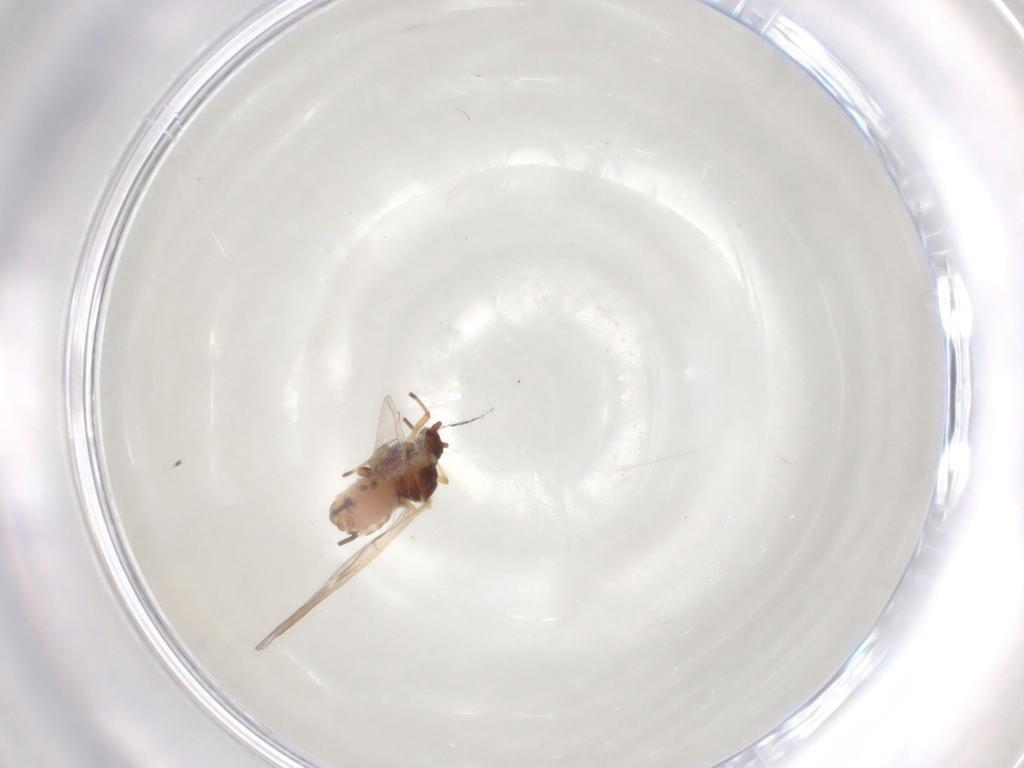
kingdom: Animalia
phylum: Arthropoda
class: Insecta
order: Hemiptera
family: Aphididae
